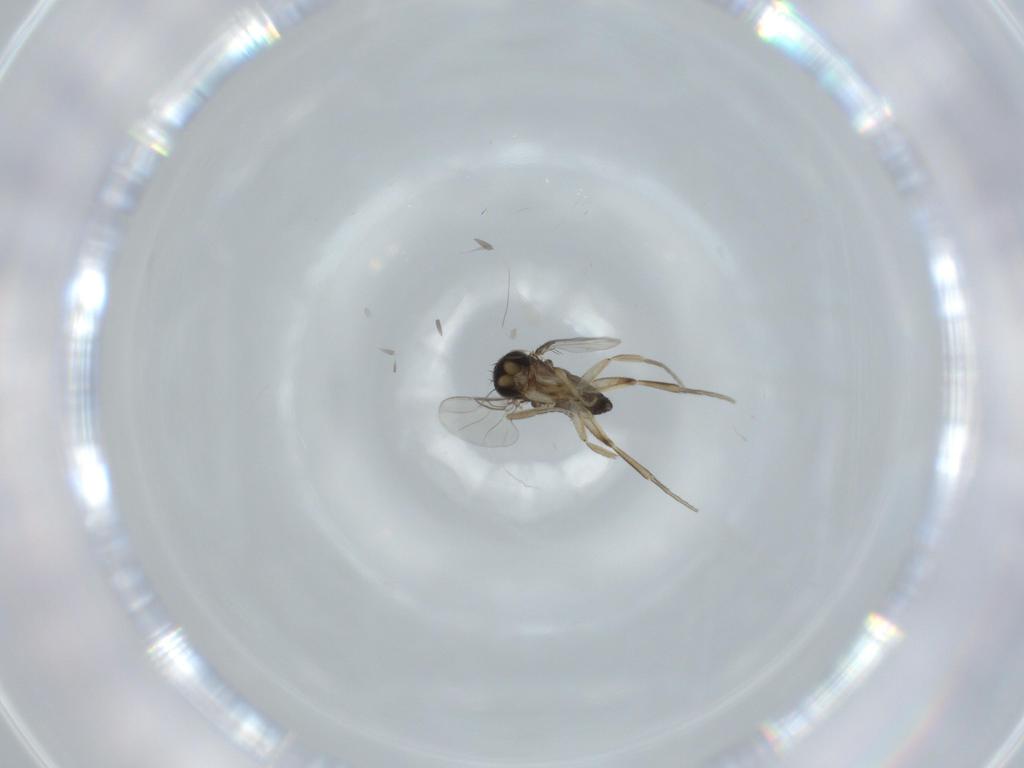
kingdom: Animalia
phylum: Arthropoda
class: Insecta
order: Diptera
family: Phoridae
